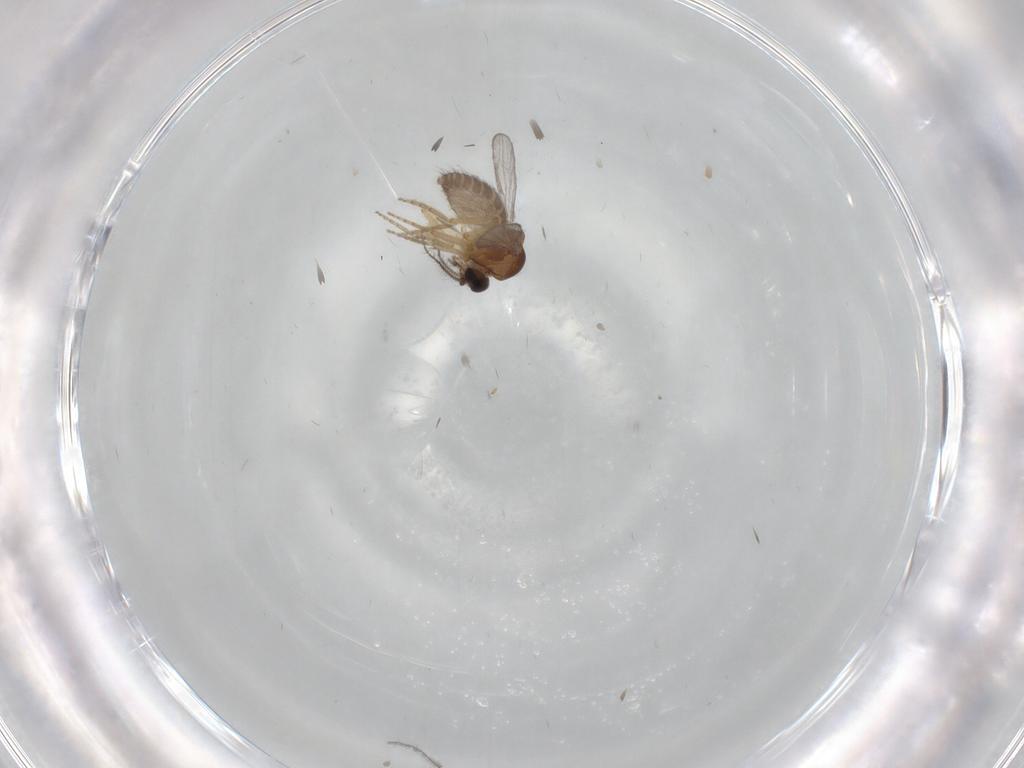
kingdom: Animalia
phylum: Arthropoda
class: Insecta
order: Diptera
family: Ceratopogonidae
